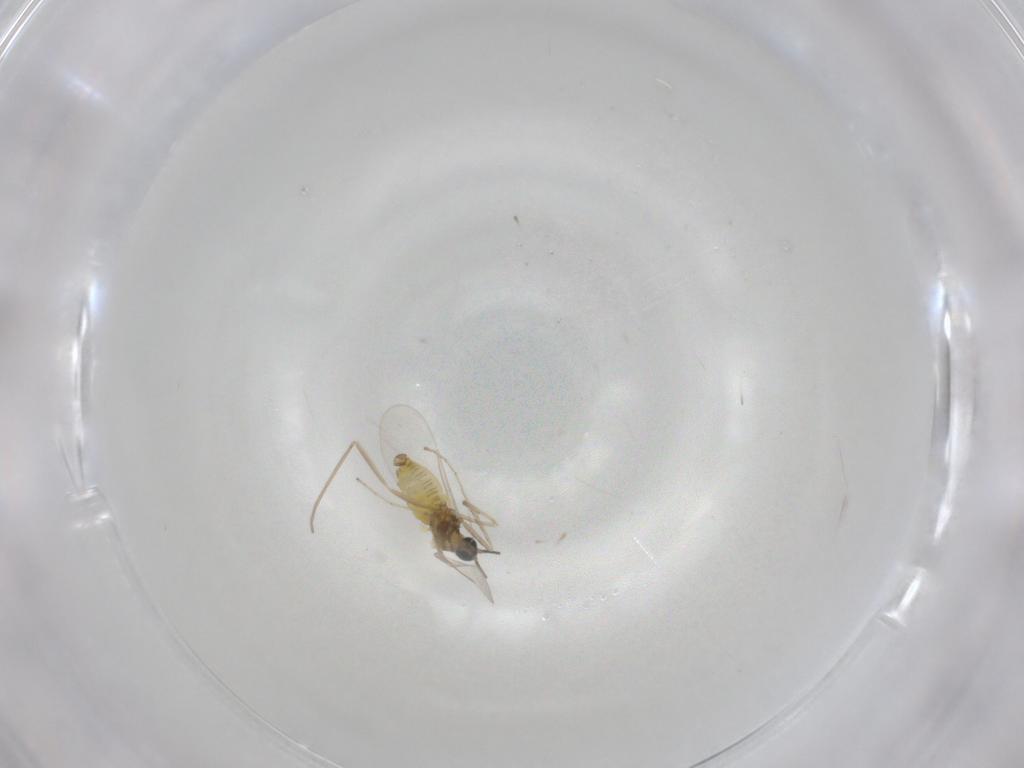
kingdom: Animalia
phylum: Arthropoda
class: Insecta
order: Diptera
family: Cecidomyiidae
